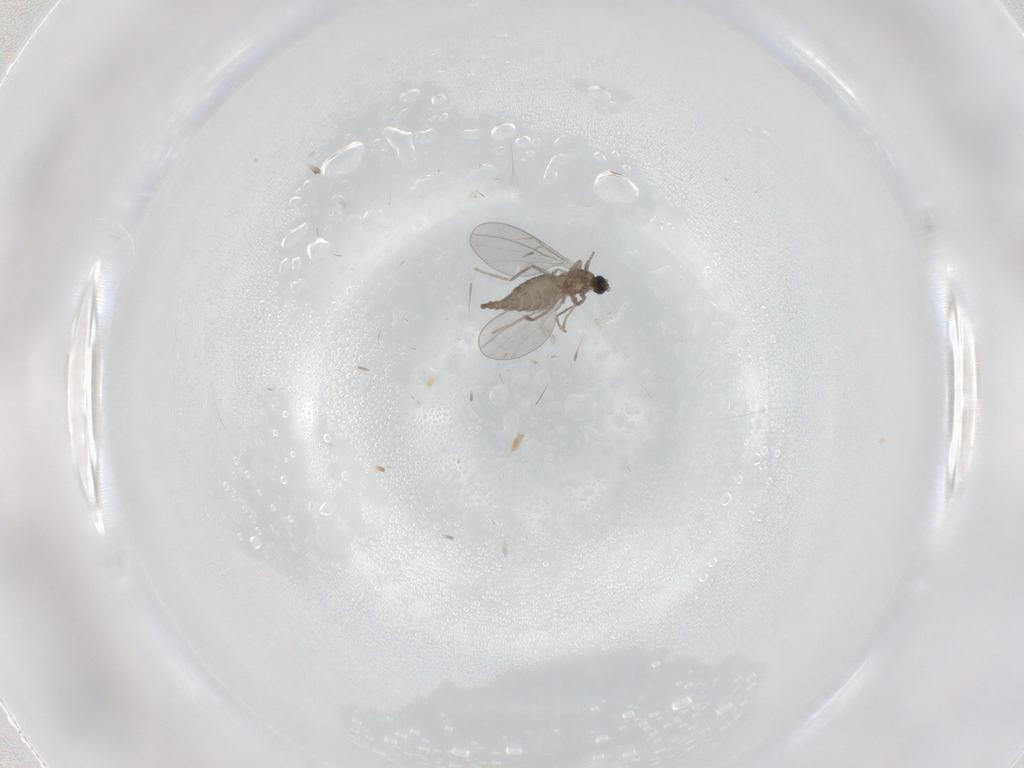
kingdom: Animalia
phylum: Arthropoda
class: Insecta
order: Diptera
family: Cecidomyiidae
